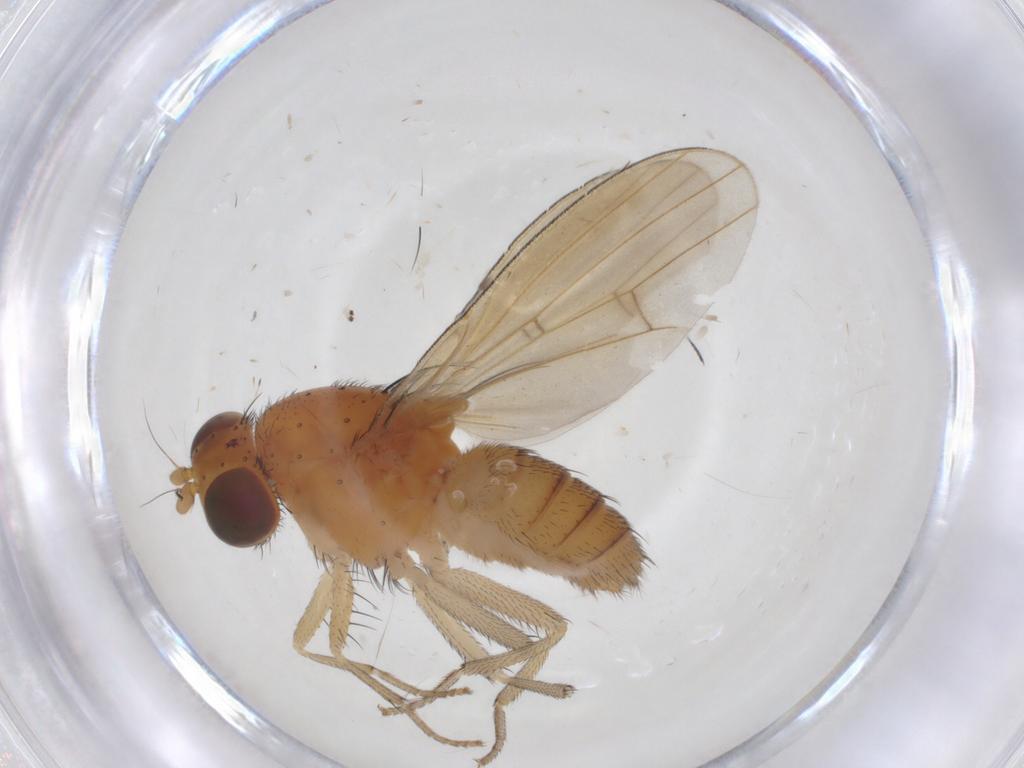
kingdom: Animalia
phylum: Arthropoda
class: Insecta
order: Diptera
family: Sciaridae
